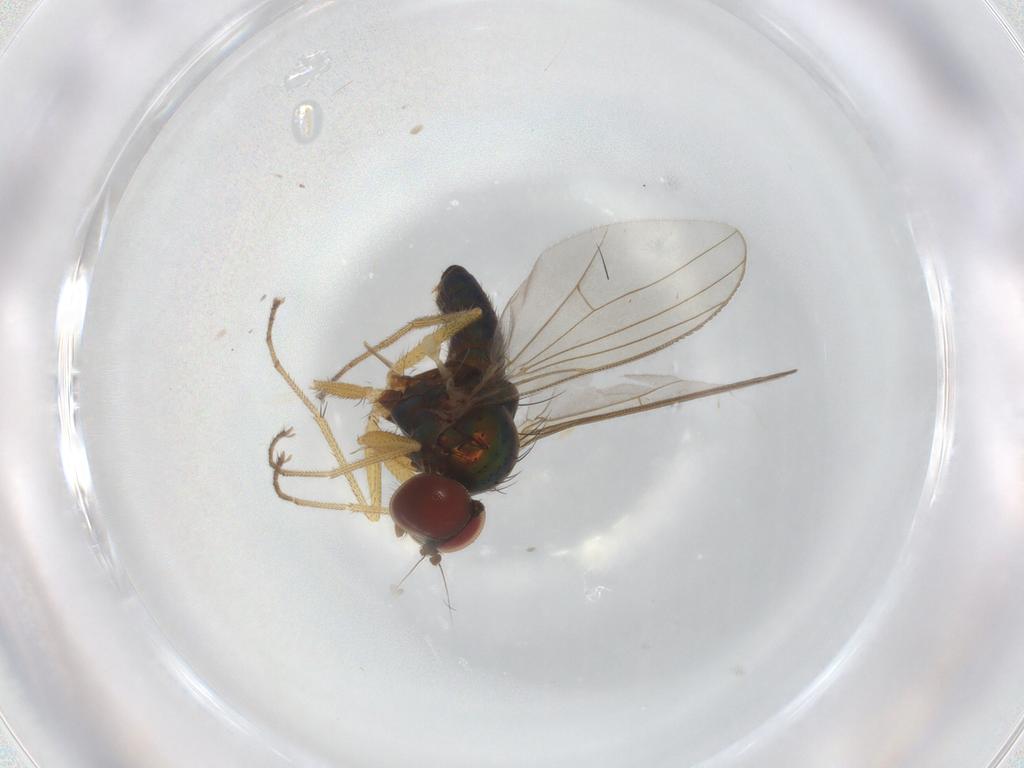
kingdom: Animalia
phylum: Arthropoda
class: Insecta
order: Diptera
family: Dolichopodidae
